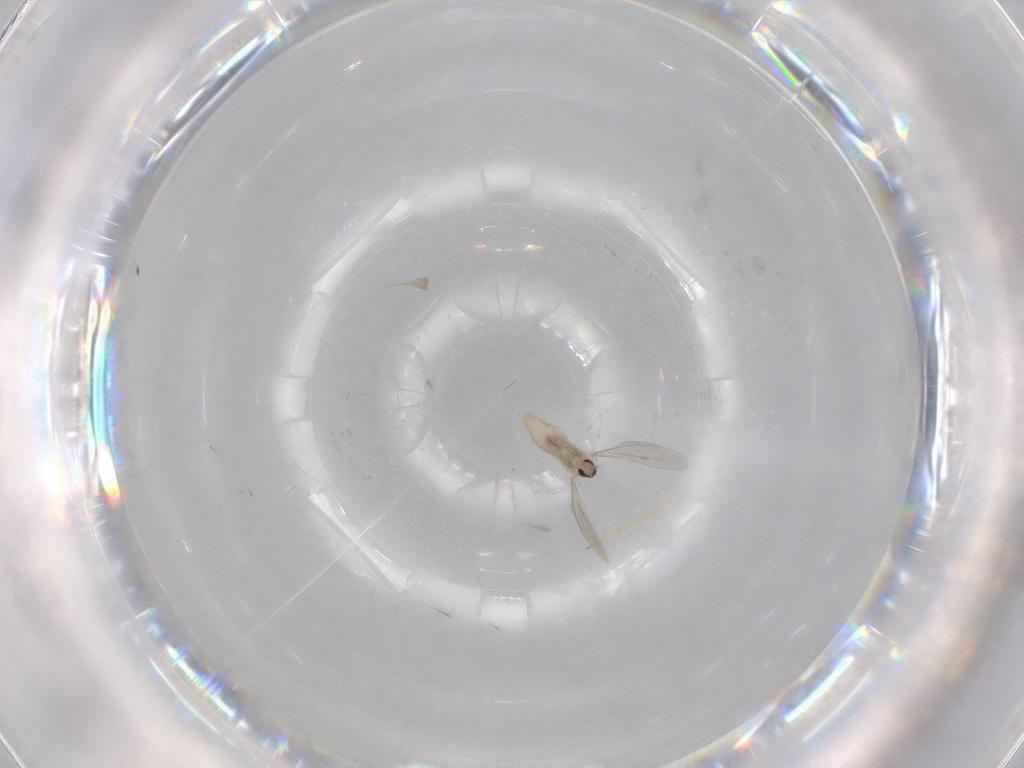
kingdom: Animalia
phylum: Arthropoda
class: Insecta
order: Diptera
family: Cecidomyiidae
